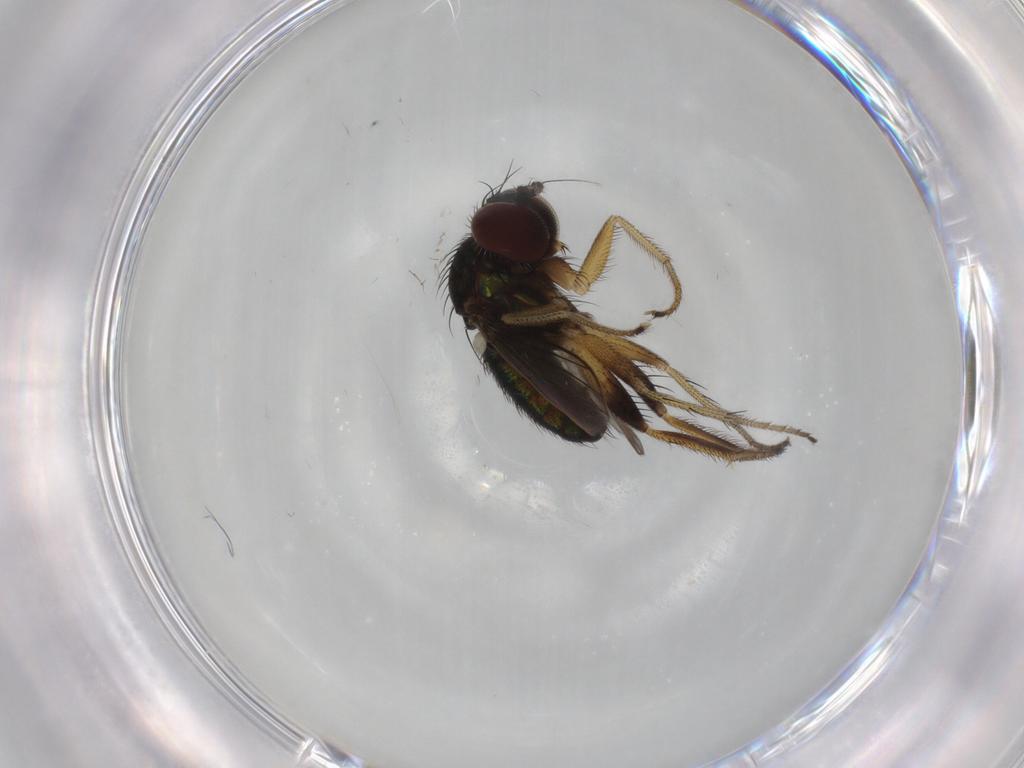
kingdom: Animalia
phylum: Arthropoda
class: Insecta
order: Diptera
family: Dolichopodidae
